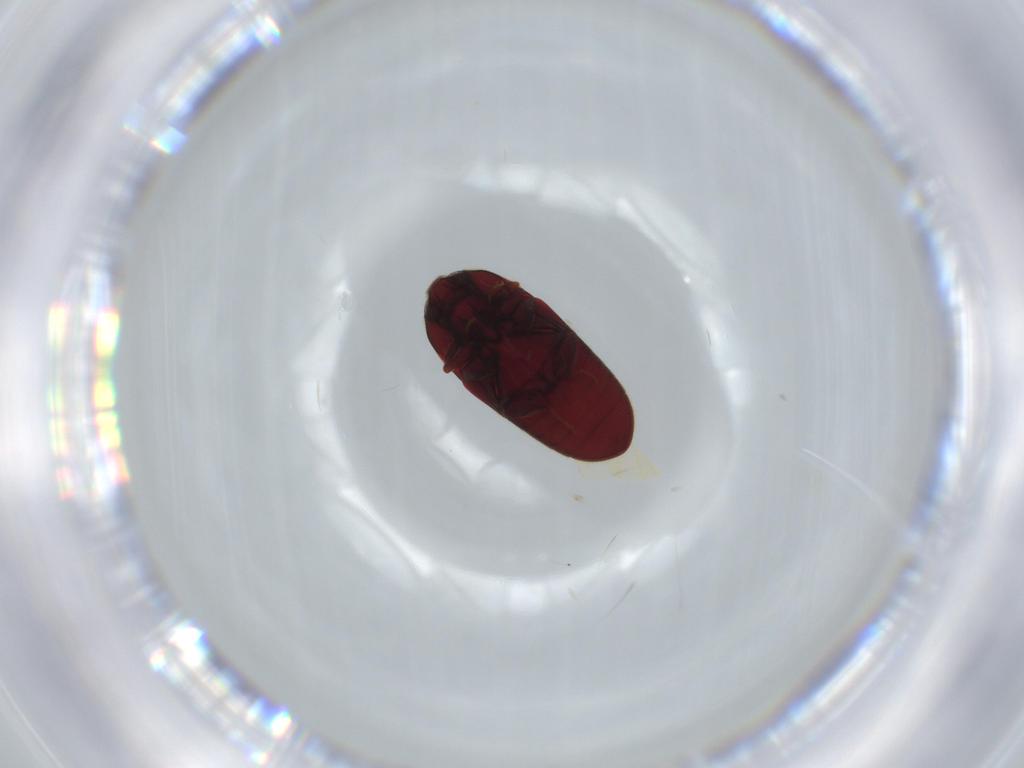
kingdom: Animalia
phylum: Arthropoda
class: Insecta
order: Coleoptera
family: Throscidae
